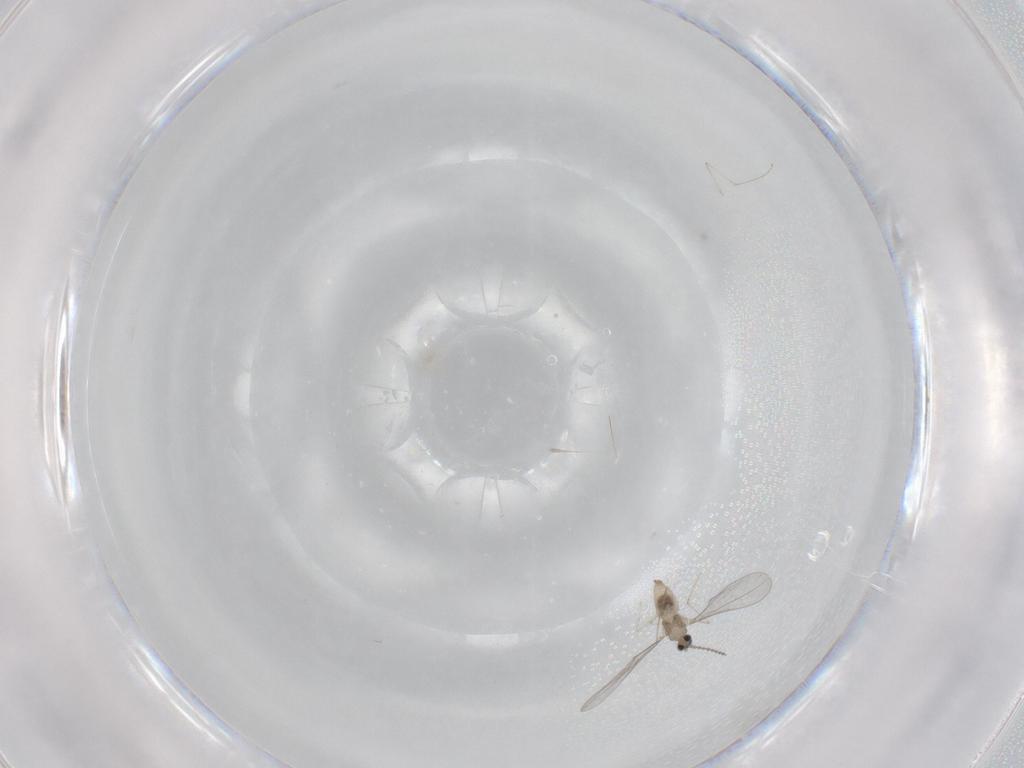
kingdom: Animalia
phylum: Arthropoda
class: Insecta
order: Diptera
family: Cecidomyiidae
